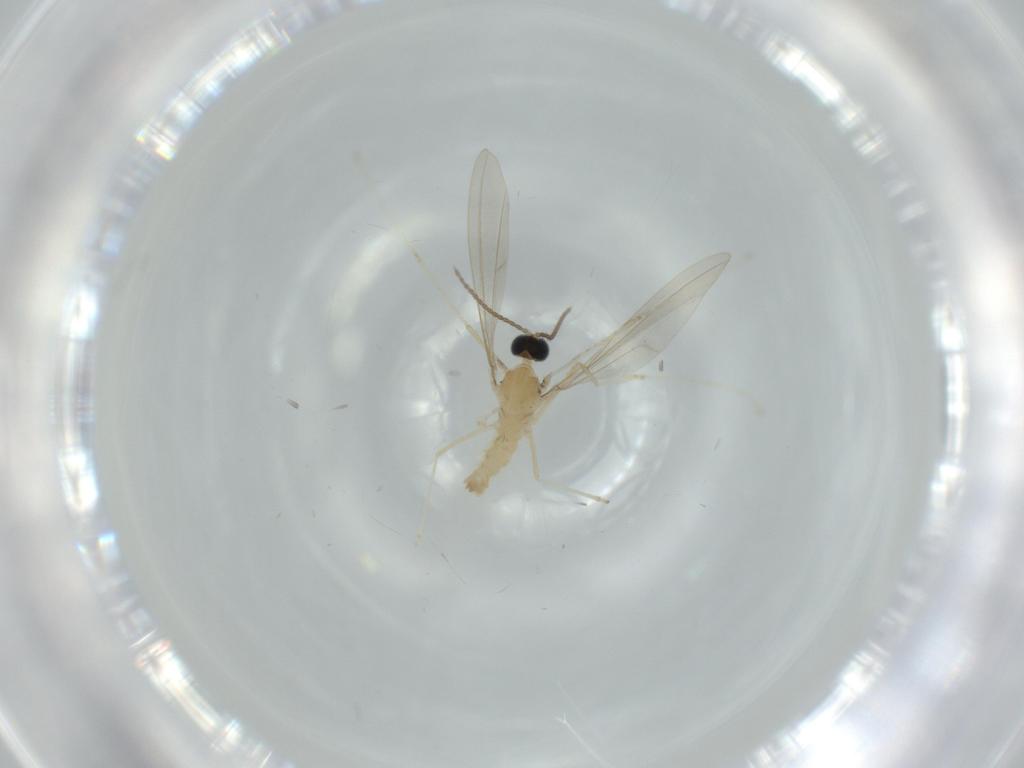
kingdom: Animalia
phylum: Arthropoda
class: Insecta
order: Diptera
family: Cecidomyiidae
